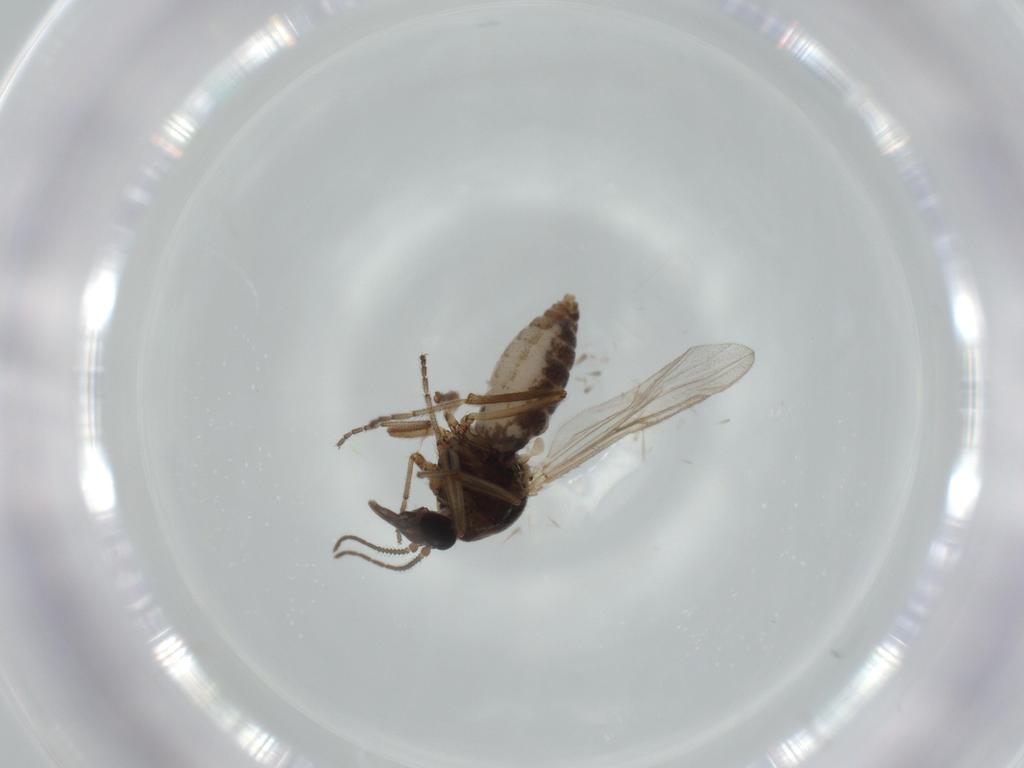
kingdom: Animalia
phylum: Arthropoda
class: Insecta
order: Diptera
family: Ceratopogonidae
